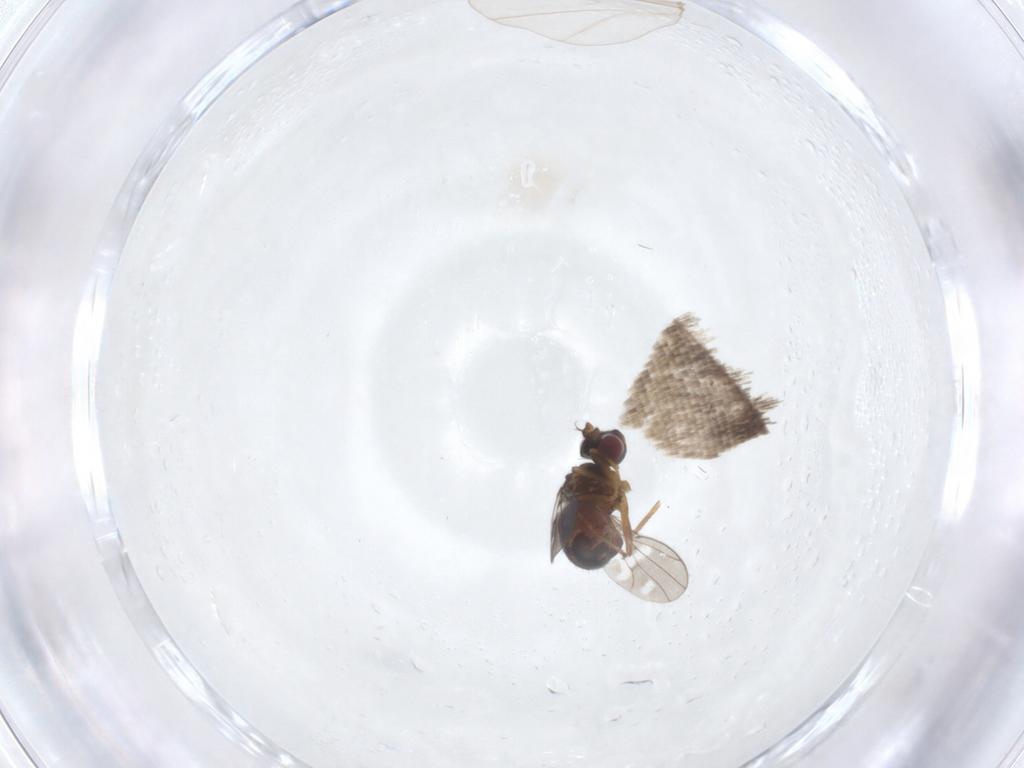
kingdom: Animalia
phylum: Arthropoda
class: Insecta
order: Diptera
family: Ephydridae
